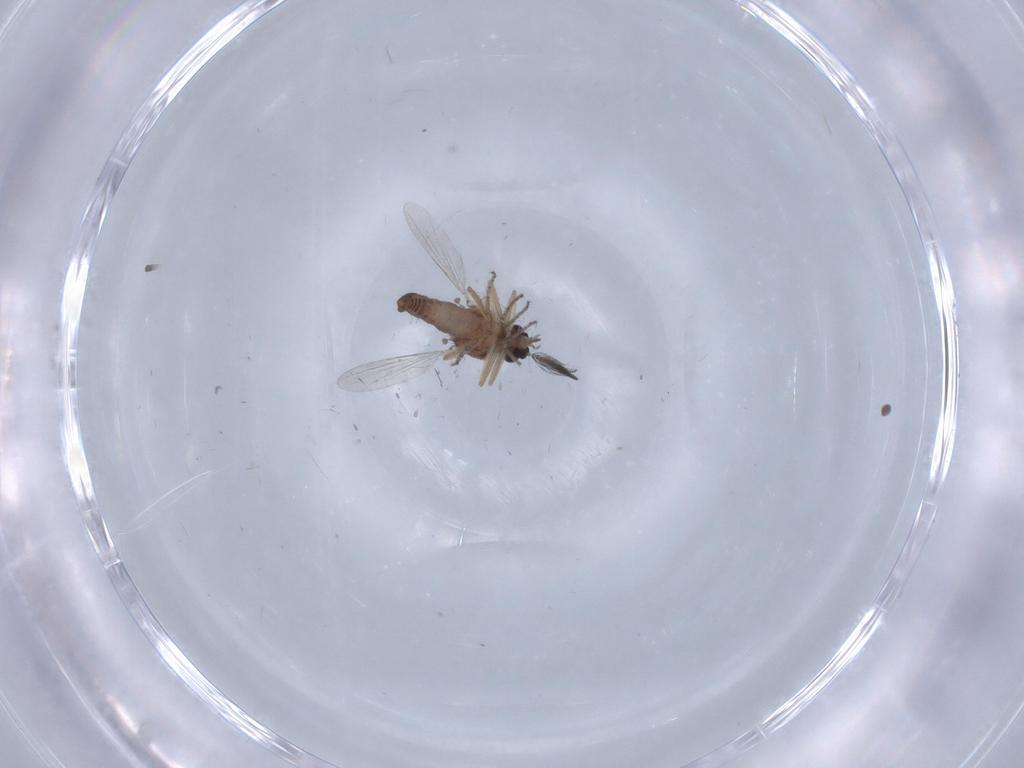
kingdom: Animalia
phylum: Arthropoda
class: Insecta
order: Diptera
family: Ceratopogonidae
